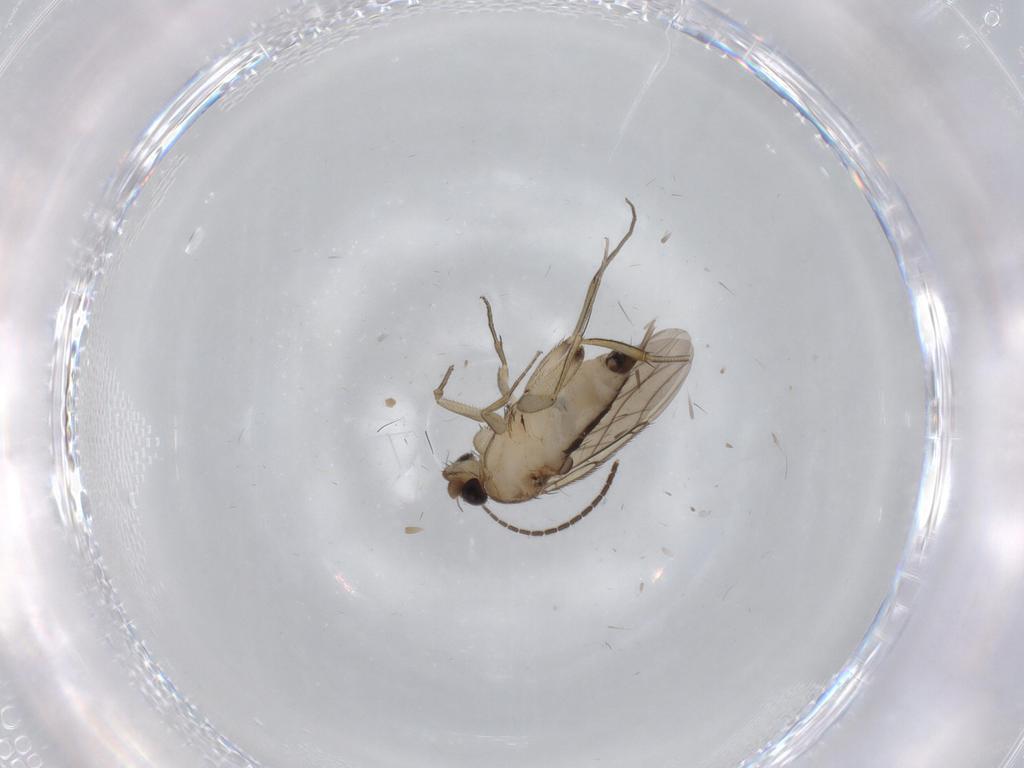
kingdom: Animalia
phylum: Arthropoda
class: Insecta
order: Diptera
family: Sciaridae
